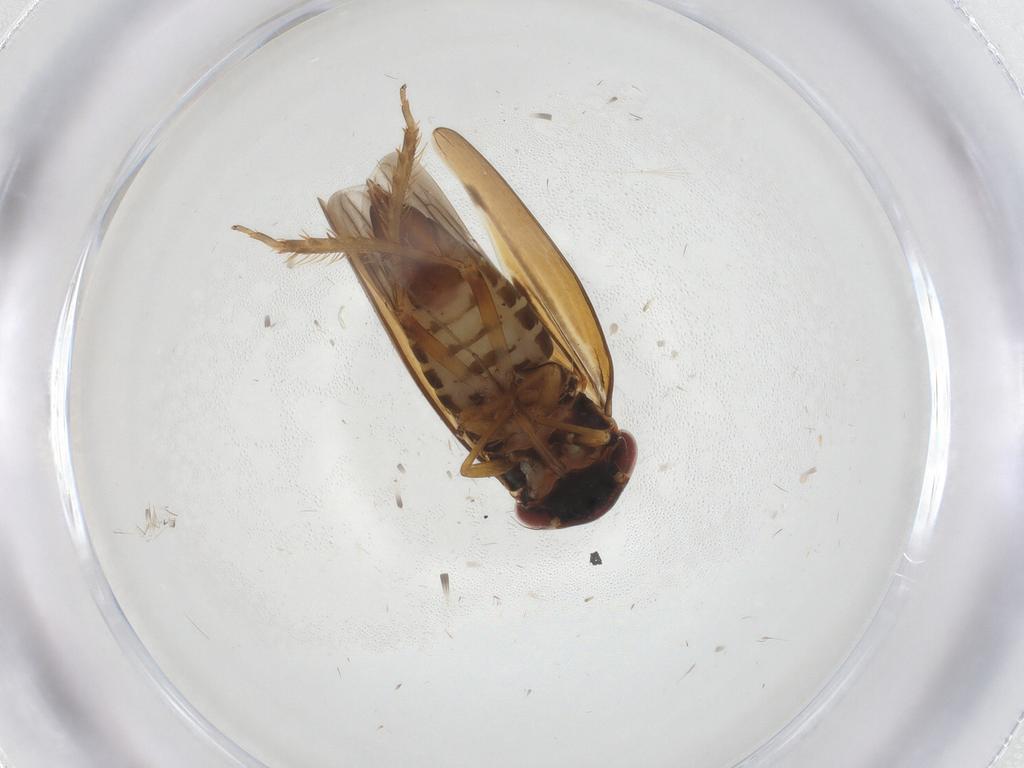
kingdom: Animalia
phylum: Arthropoda
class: Insecta
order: Hemiptera
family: Cicadellidae
